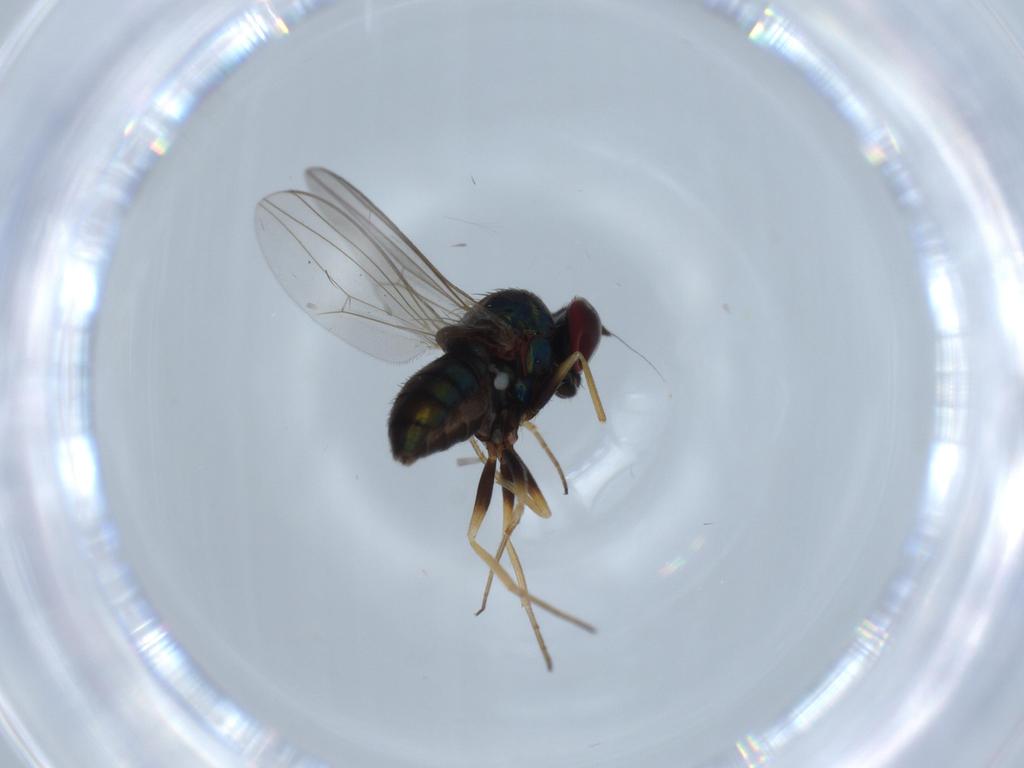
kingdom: Animalia
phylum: Arthropoda
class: Insecta
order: Diptera
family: Dolichopodidae
